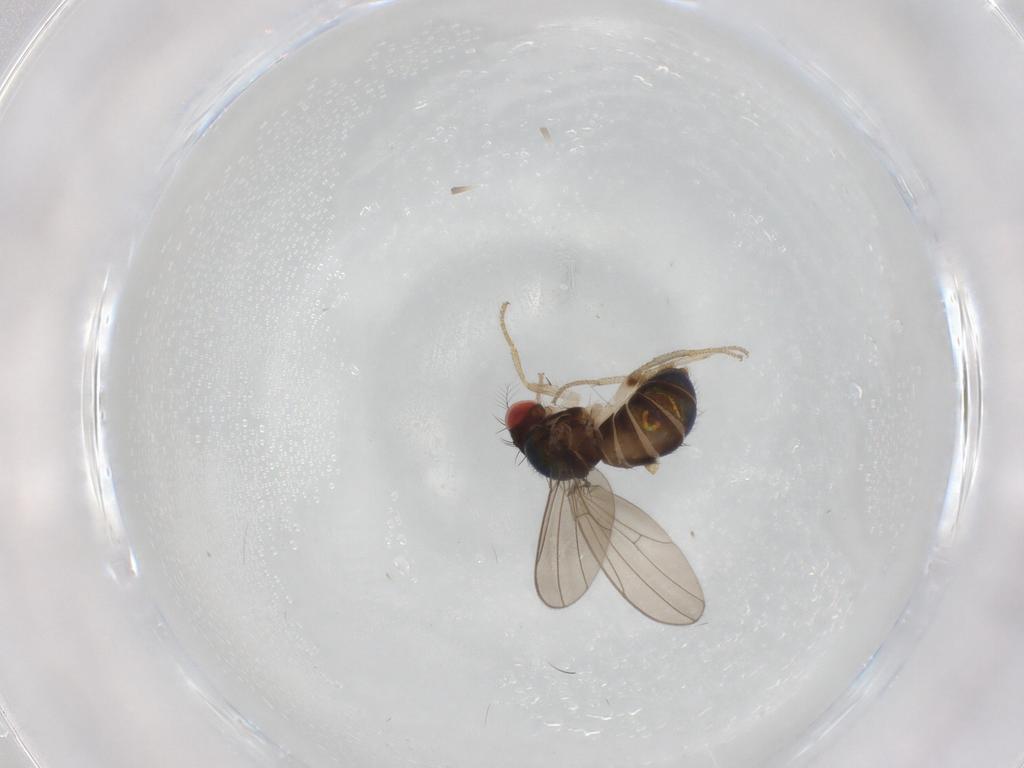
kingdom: Animalia
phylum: Arthropoda
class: Insecta
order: Diptera
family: Drosophilidae
